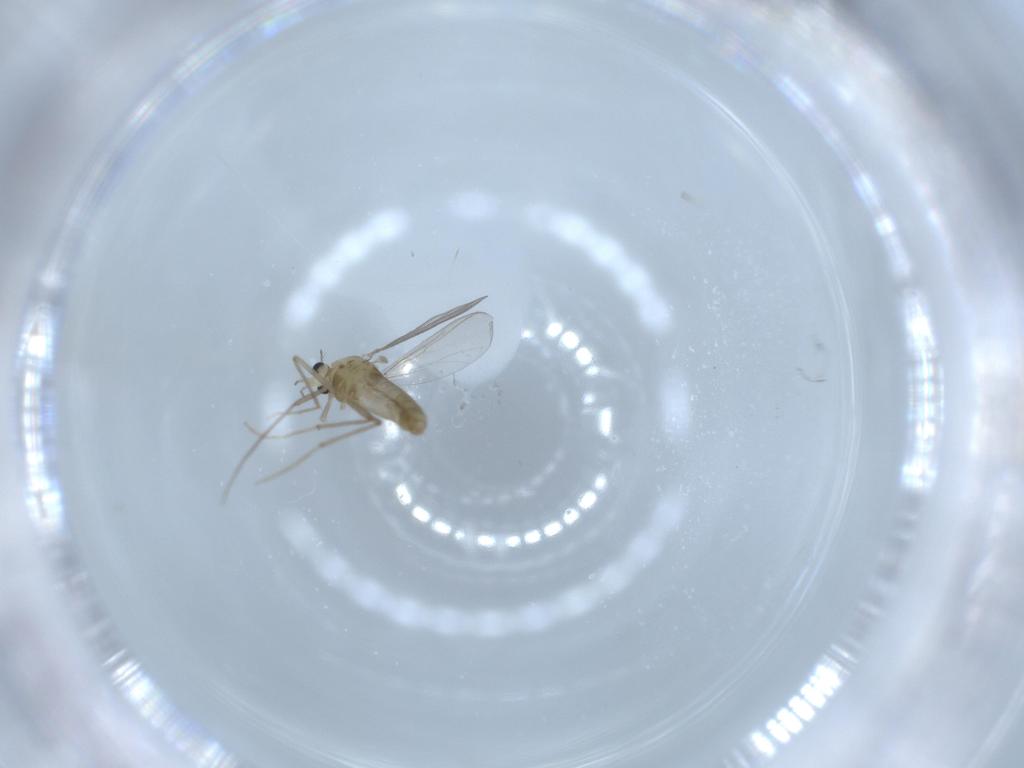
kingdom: Animalia
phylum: Arthropoda
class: Insecta
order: Diptera
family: Chironomidae
